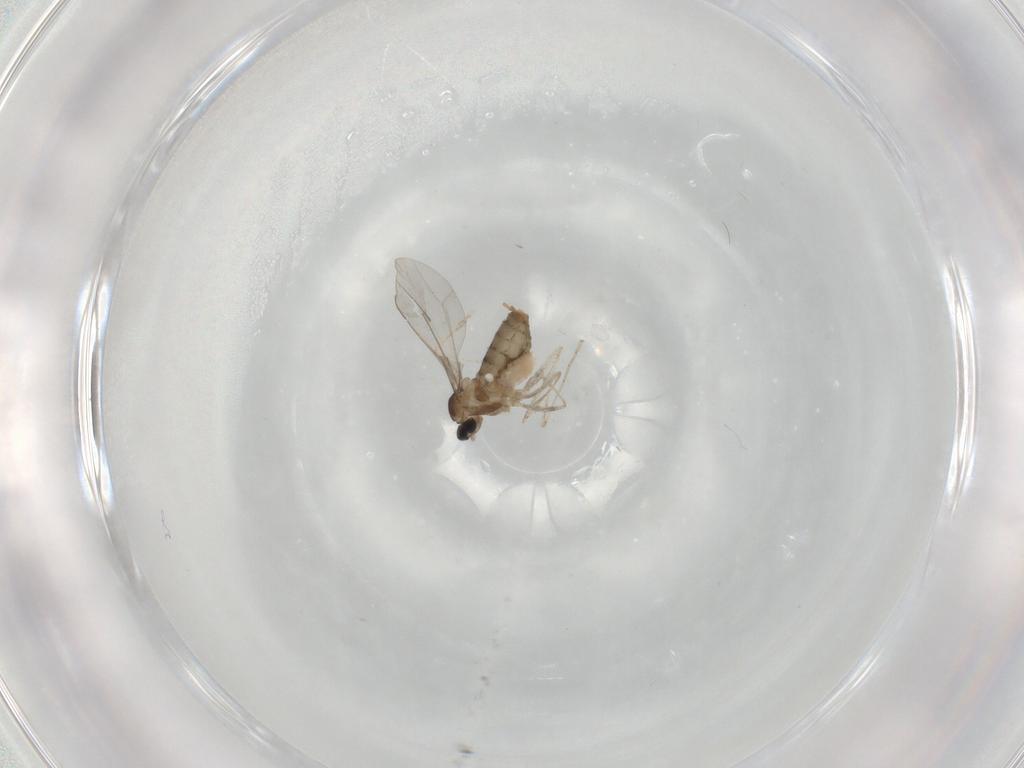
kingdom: Animalia
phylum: Arthropoda
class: Insecta
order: Diptera
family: Cecidomyiidae
